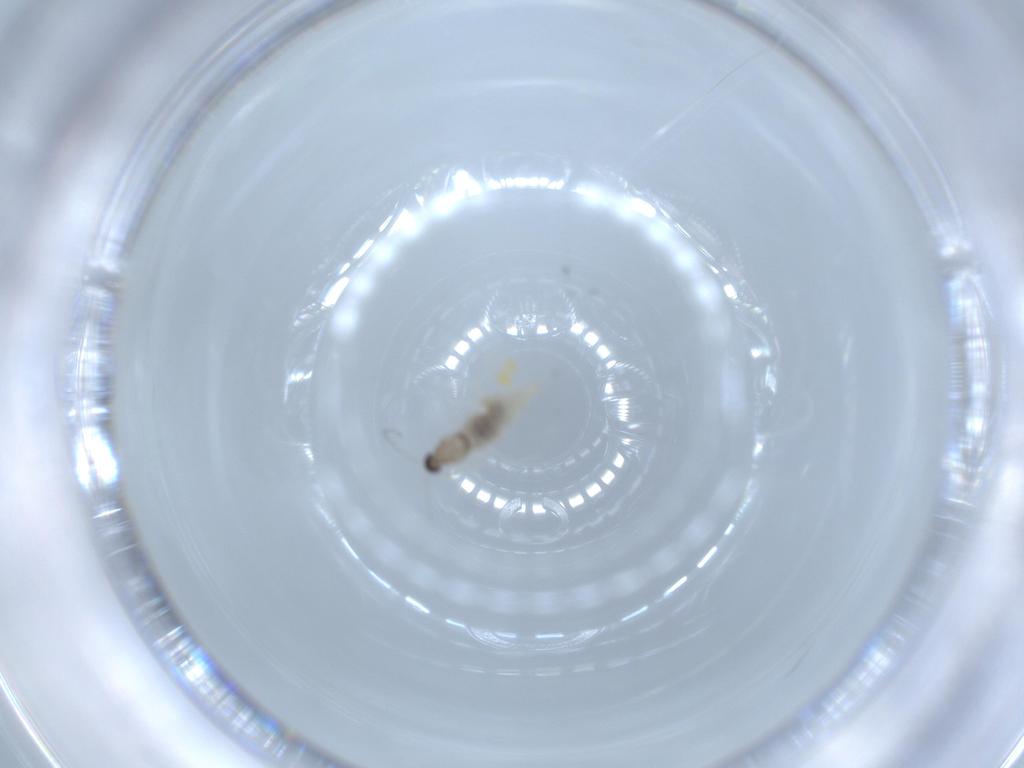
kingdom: Animalia
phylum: Arthropoda
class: Insecta
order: Diptera
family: Cecidomyiidae
